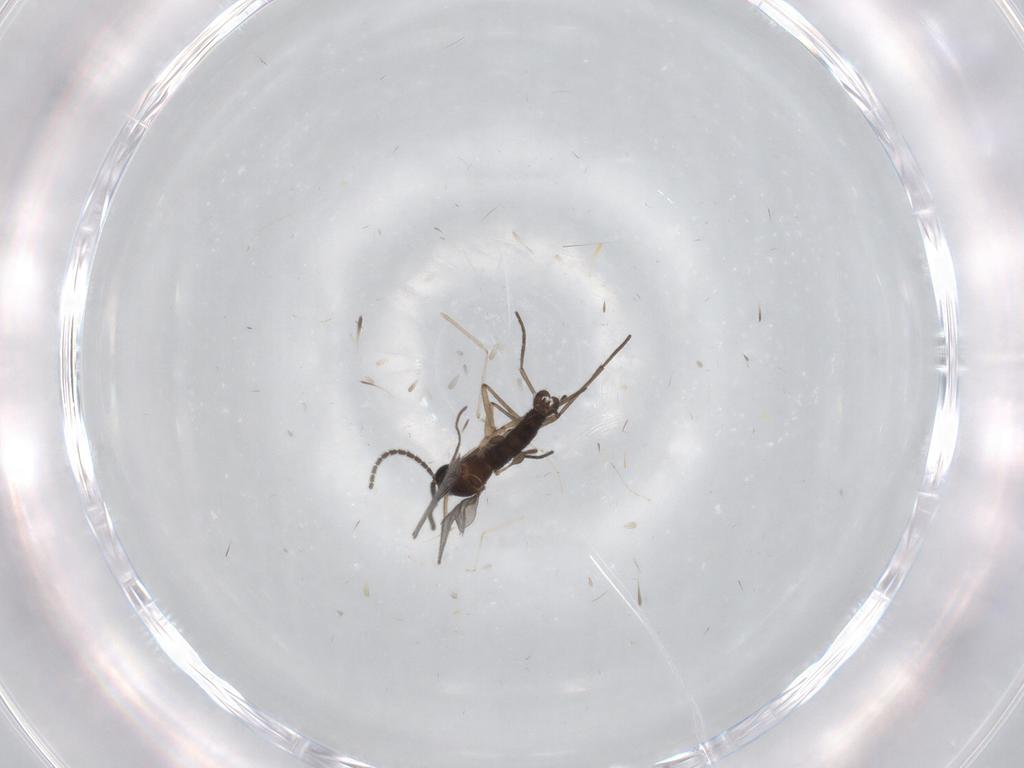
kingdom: Animalia
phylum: Arthropoda
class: Insecta
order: Diptera
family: Sciaridae
